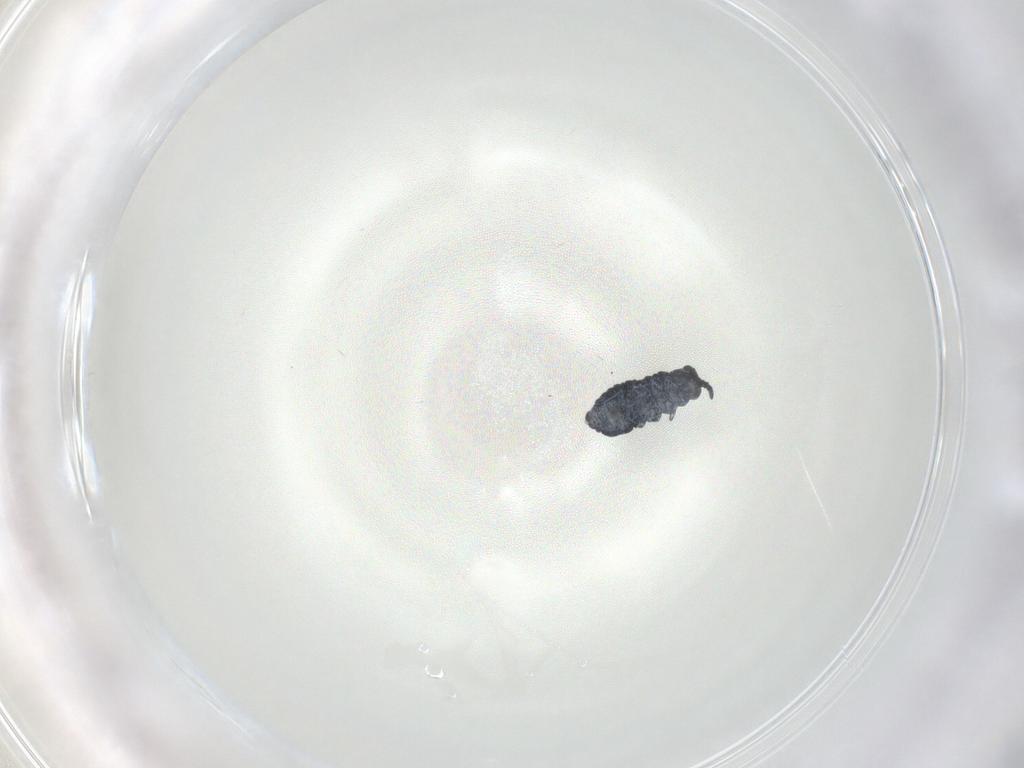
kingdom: Animalia
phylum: Arthropoda
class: Collembola
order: Poduromorpha
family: Hypogastruridae
